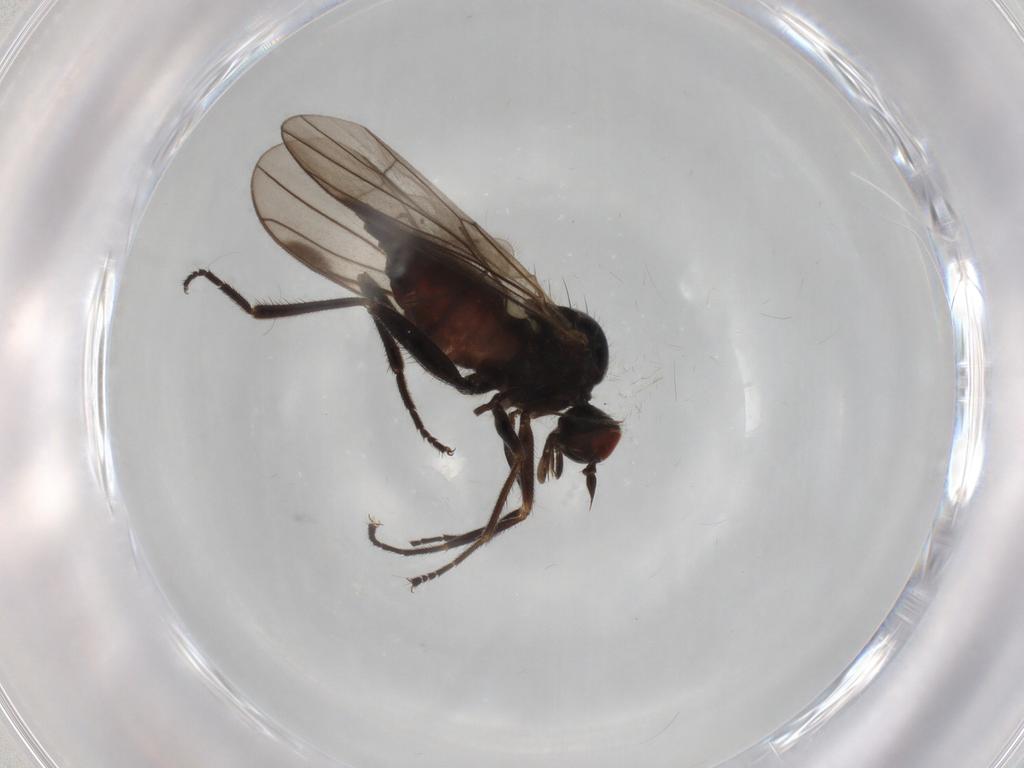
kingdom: Animalia
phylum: Arthropoda
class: Insecta
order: Diptera
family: Hybotidae
